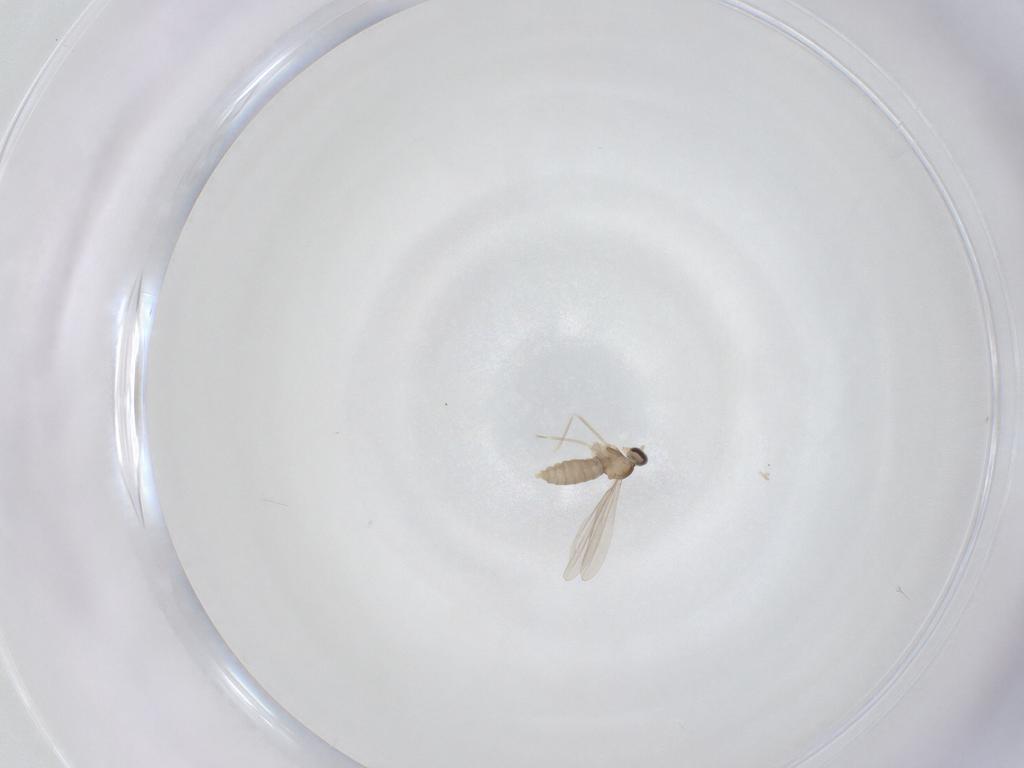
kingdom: Animalia
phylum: Arthropoda
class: Insecta
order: Diptera
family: Cecidomyiidae
